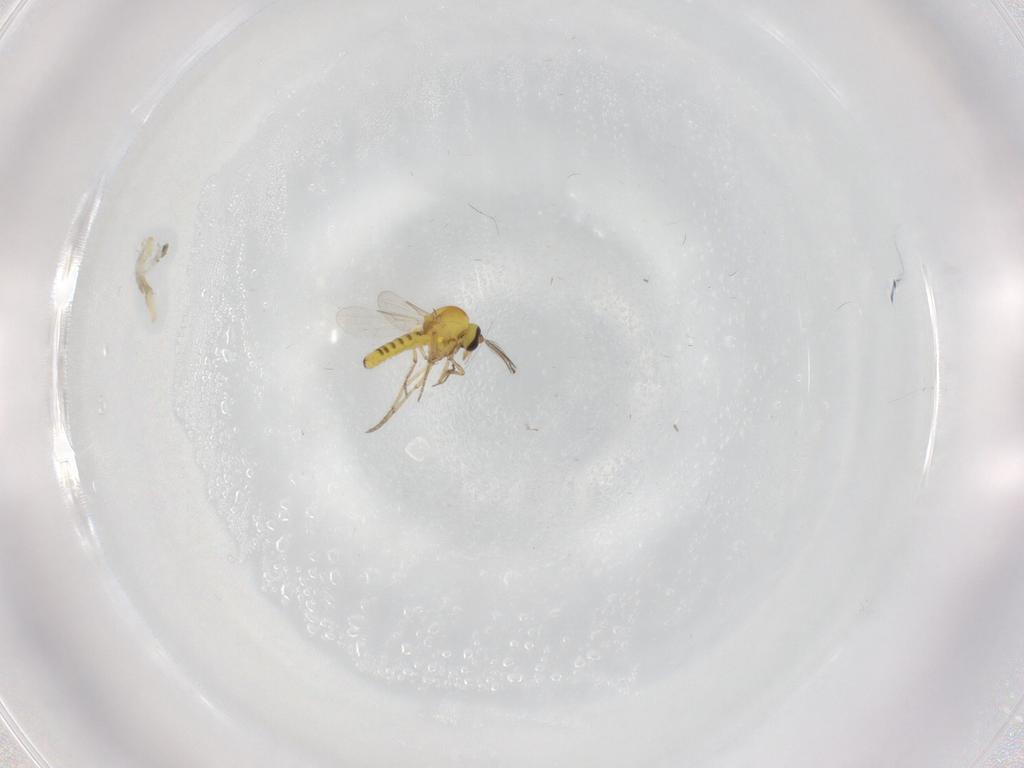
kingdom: Animalia
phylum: Arthropoda
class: Insecta
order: Diptera
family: Ceratopogonidae
